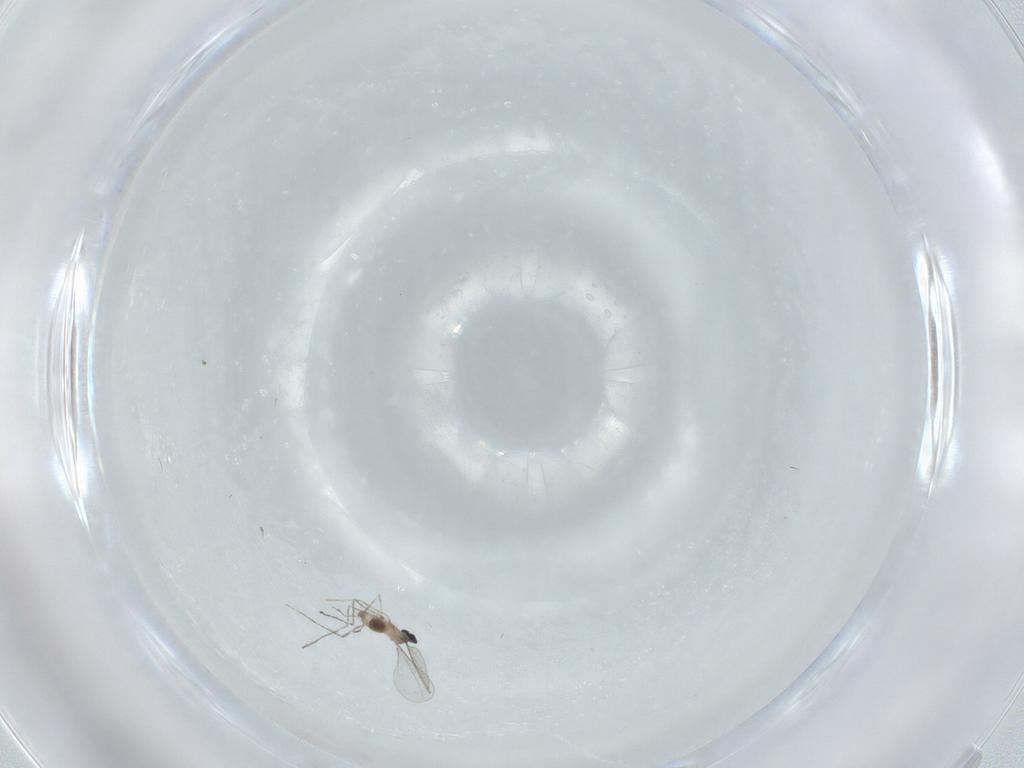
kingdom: Animalia
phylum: Arthropoda
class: Insecta
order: Diptera
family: Cecidomyiidae
